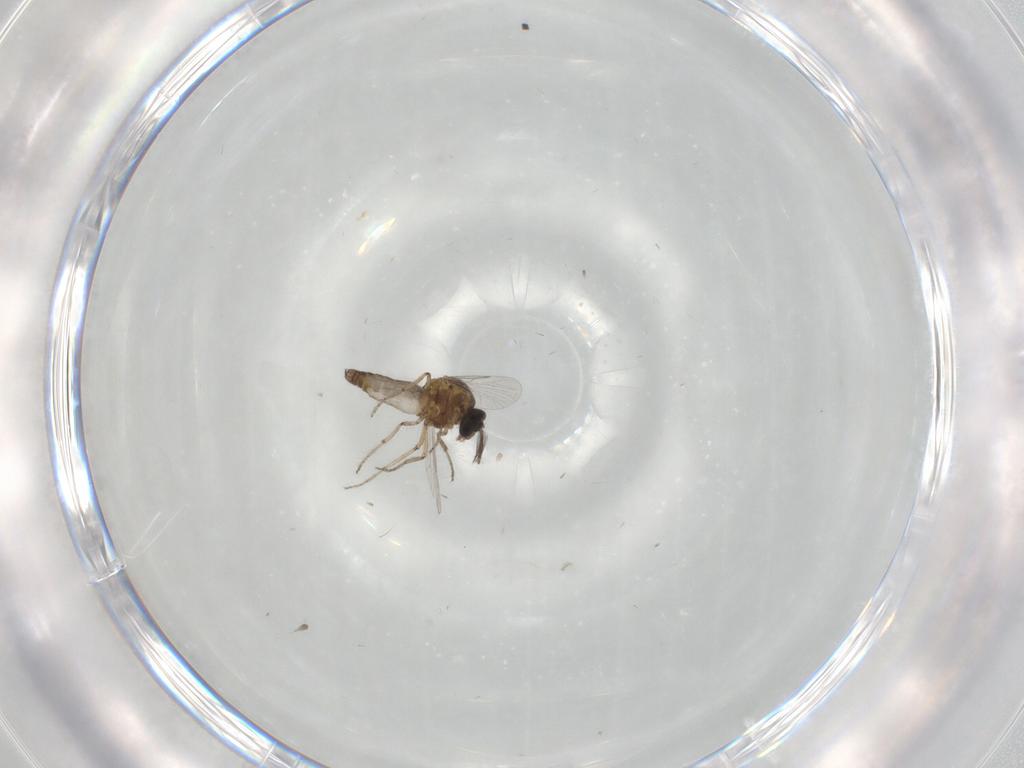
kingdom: Animalia
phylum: Arthropoda
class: Insecta
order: Diptera
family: Ceratopogonidae
